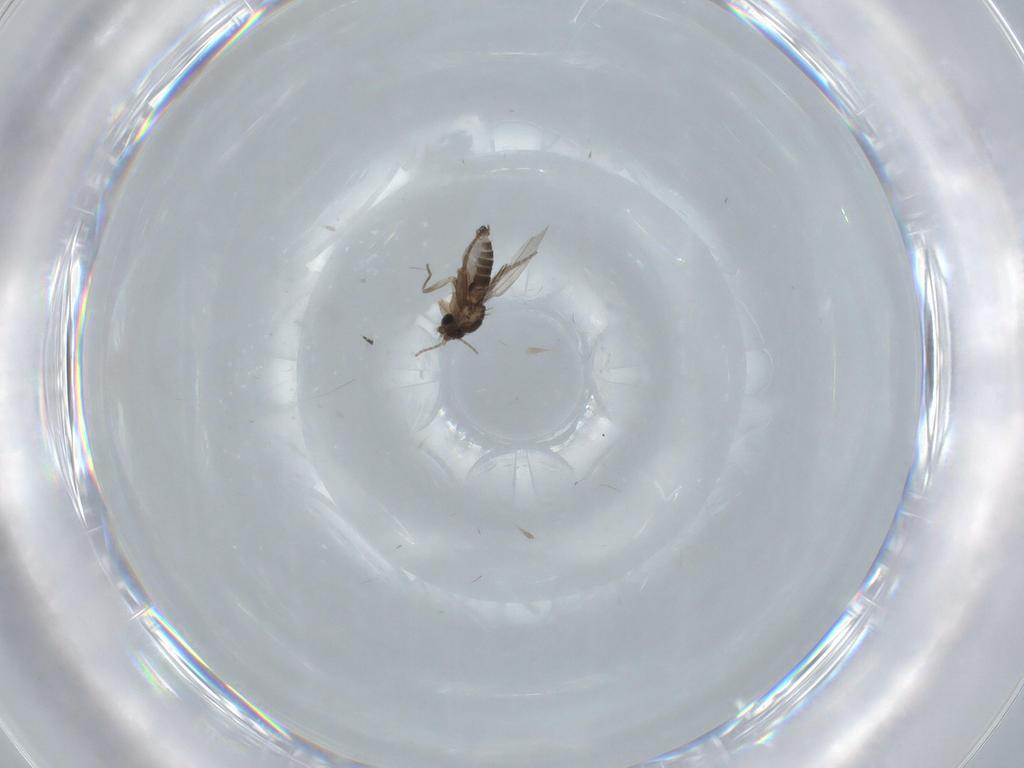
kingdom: Animalia
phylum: Arthropoda
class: Insecta
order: Diptera
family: Phoridae
